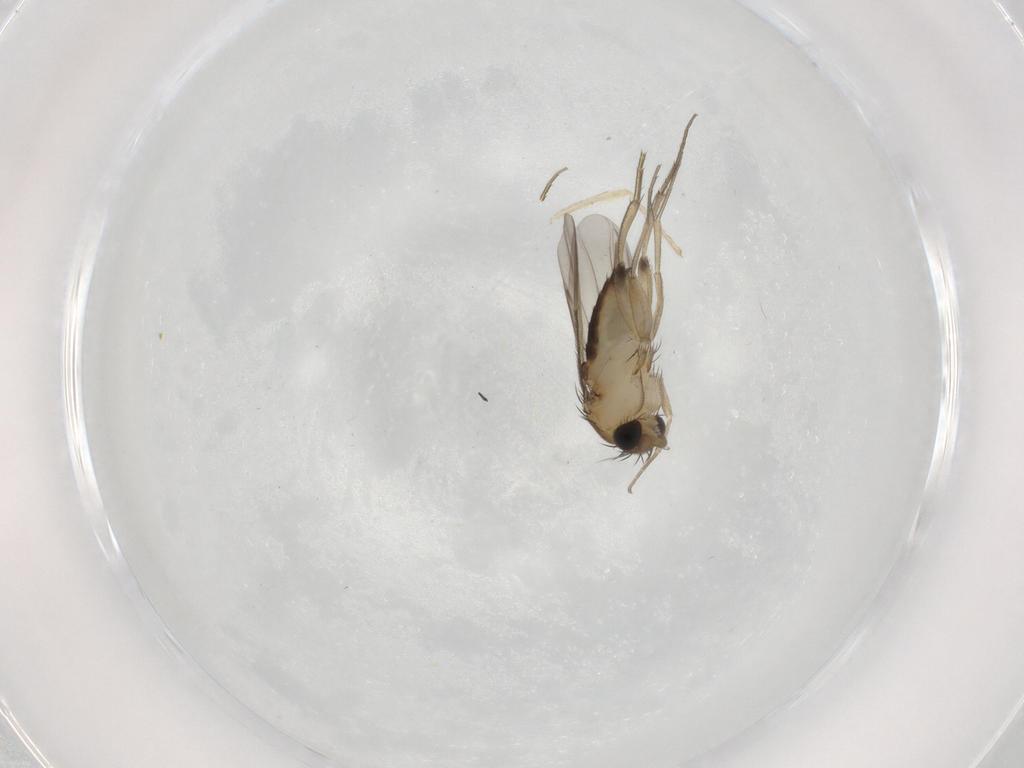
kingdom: Animalia
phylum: Arthropoda
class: Insecta
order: Diptera
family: Phoridae
